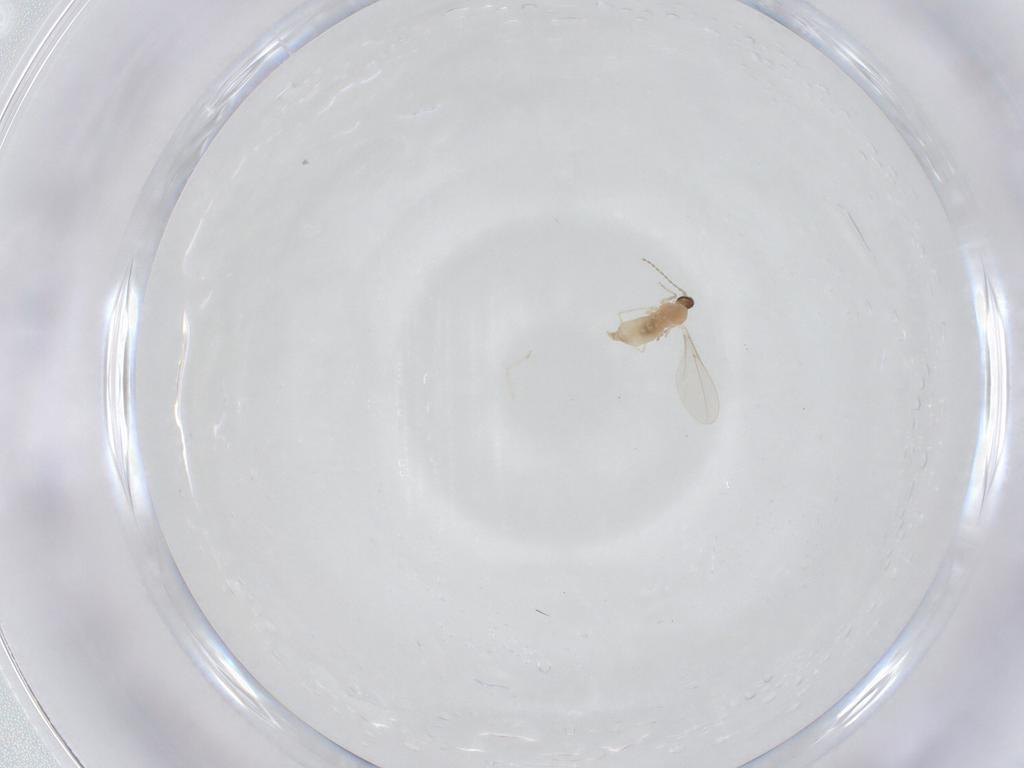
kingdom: Animalia
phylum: Arthropoda
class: Insecta
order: Diptera
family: Cecidomyiidae
